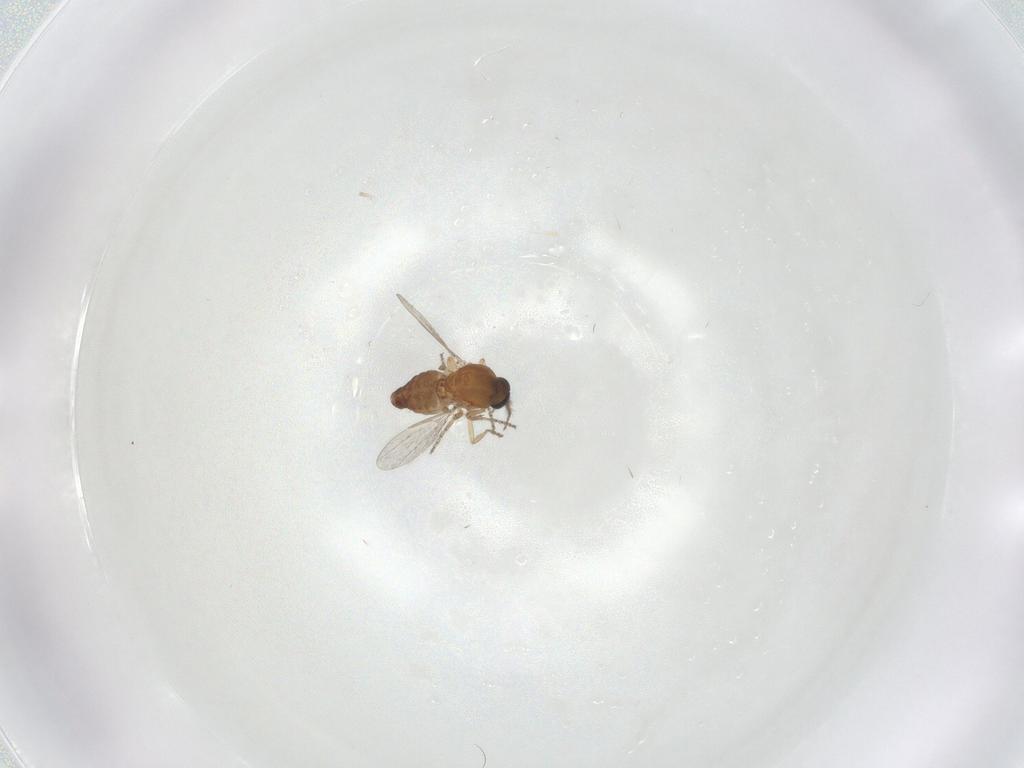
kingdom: Animalia
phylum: Arthropoda
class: Insecta
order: Diptera
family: Ceratopogonidae
